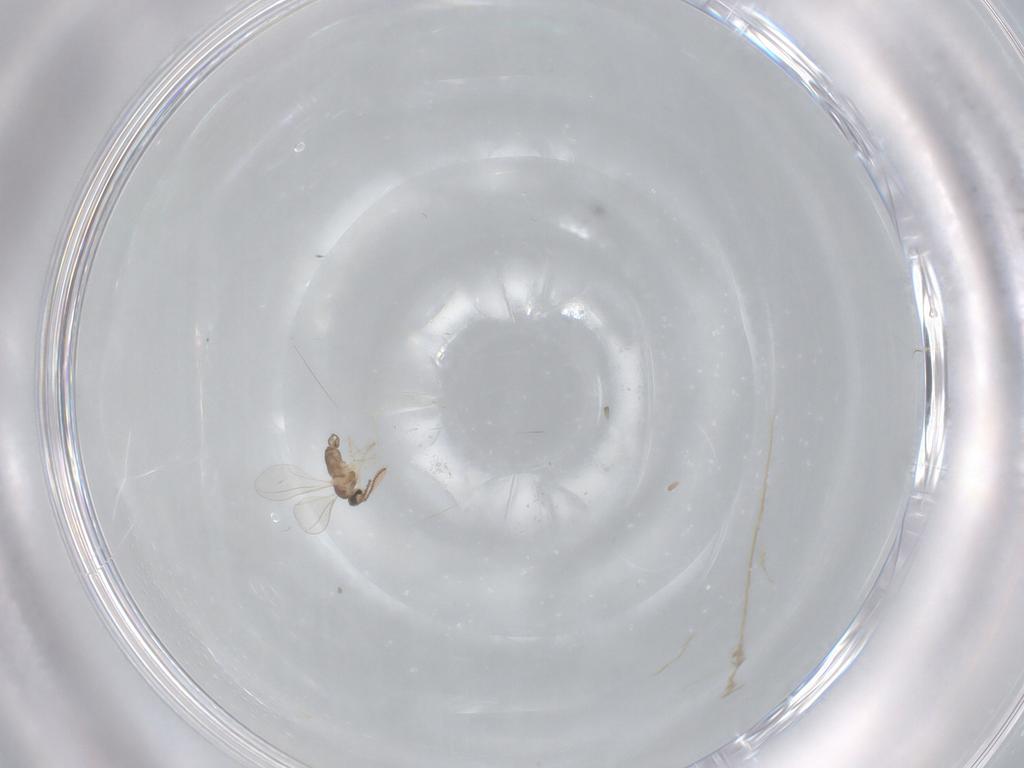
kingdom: Animalia
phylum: Arthropoda
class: Insecta
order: Diptera
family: Cecidomyiidae
